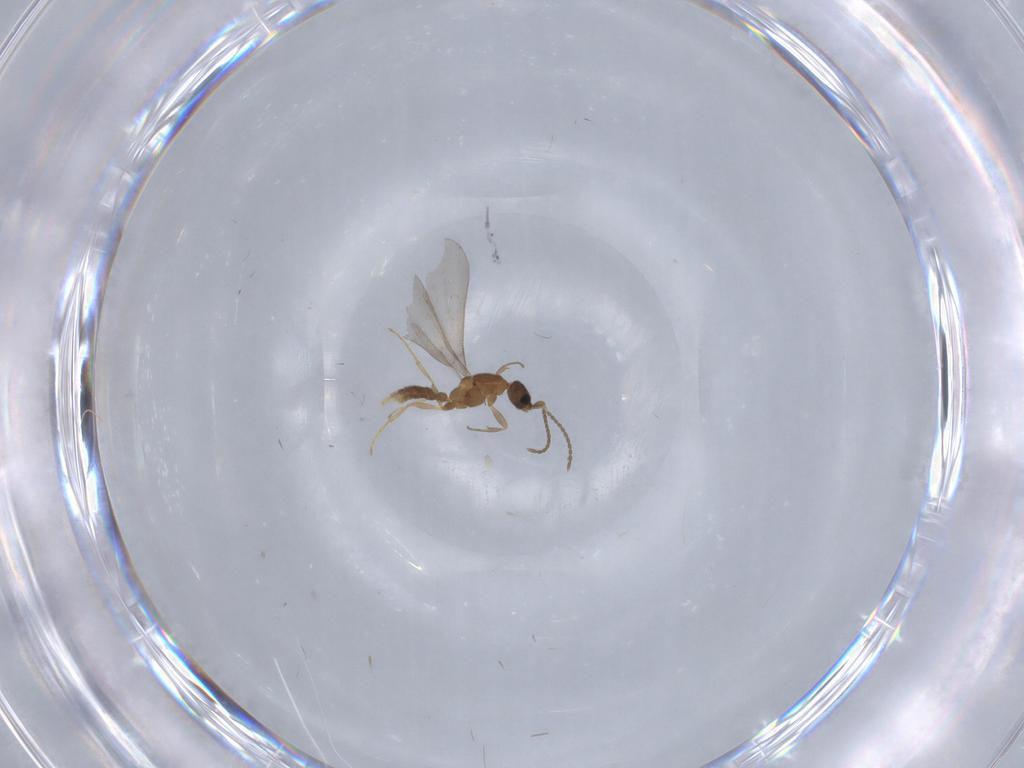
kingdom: Animalia
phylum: Arthropoda
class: Insecta
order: Hymenoptera
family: Formicidae
